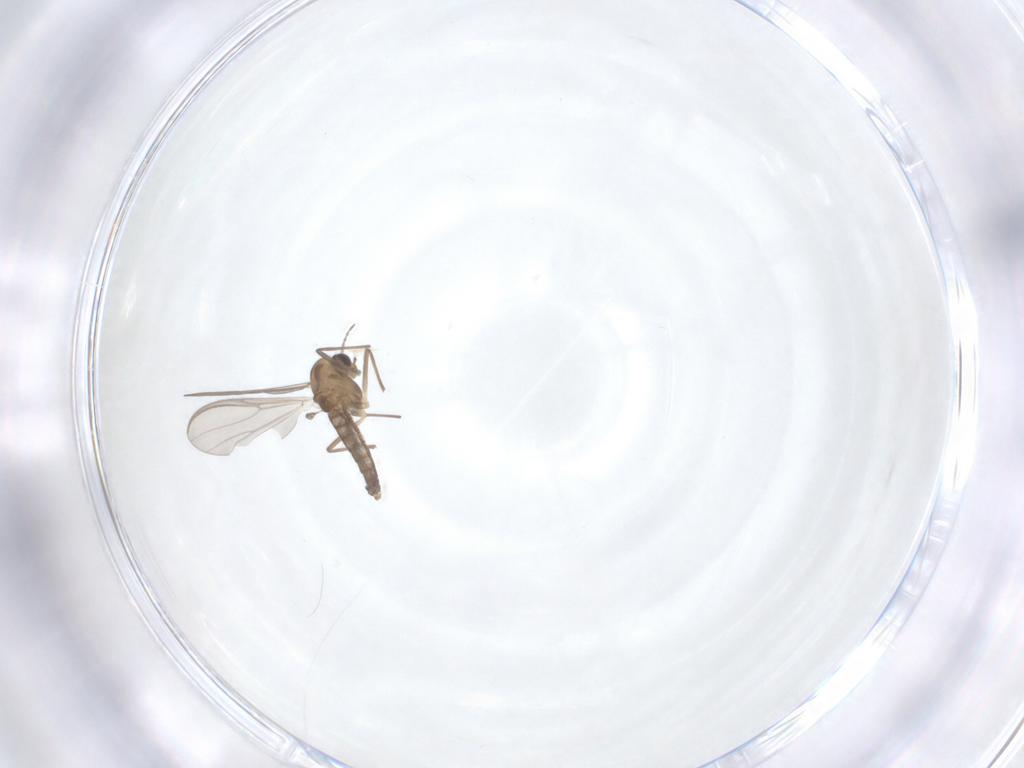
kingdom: Animalia
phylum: Arthropoda
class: Insecta
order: Diptera
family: Chironomidae
